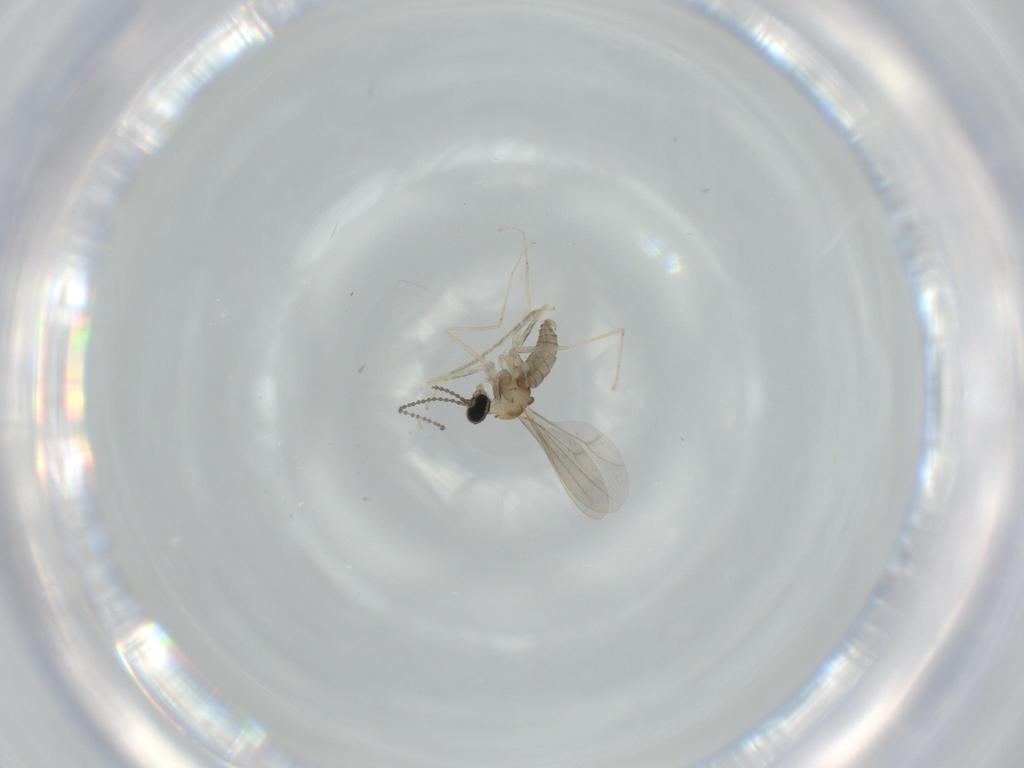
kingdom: Animalia
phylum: Arthropoda
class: Insecta
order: Diptera
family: Cecidomyiidae
